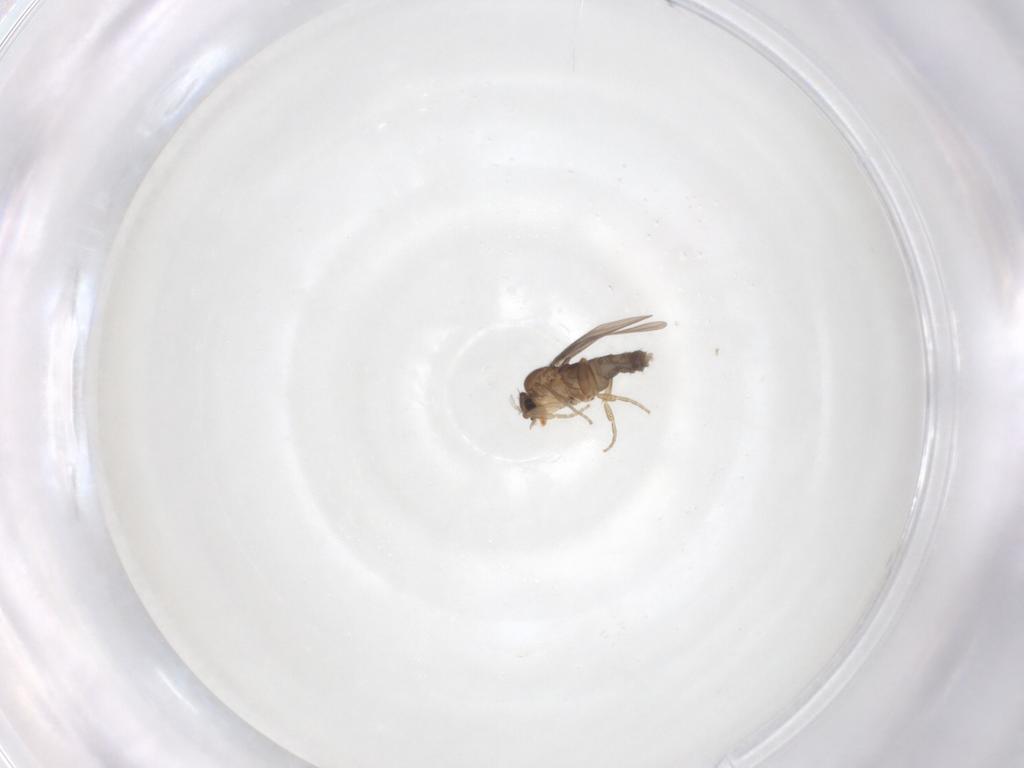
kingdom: Animalia
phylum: Arthropoda
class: Insecta
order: Diptera
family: Phoridae
